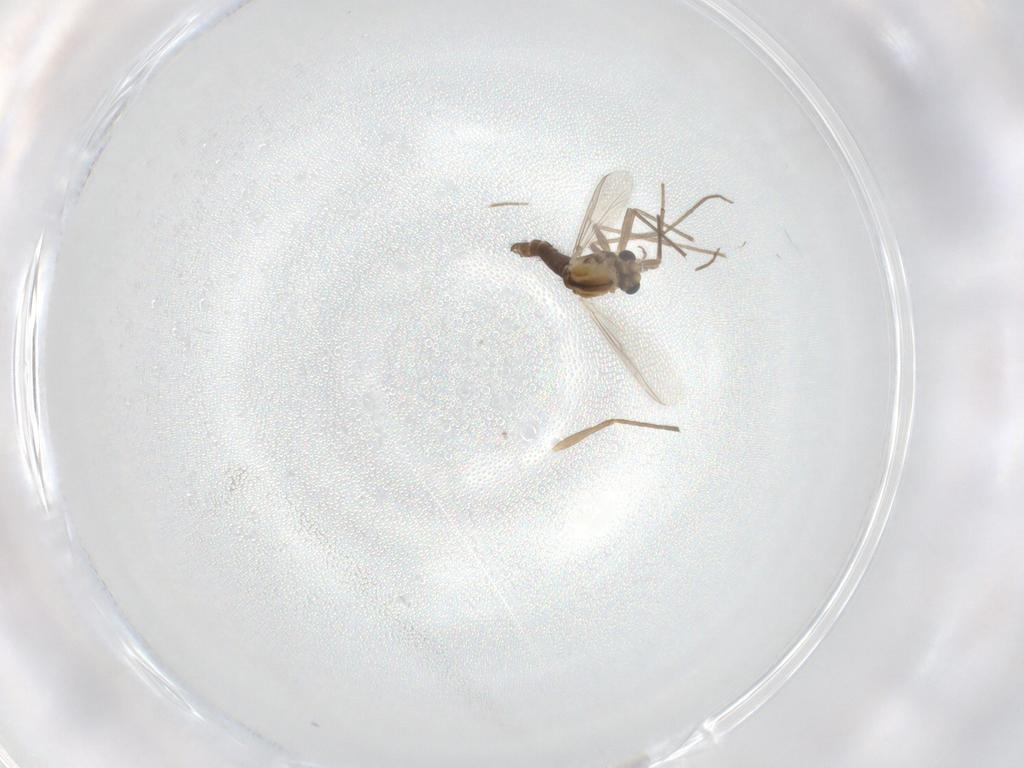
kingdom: Animalia
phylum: Arthropoda
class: Insecta
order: Diptera
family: Chironomidae
